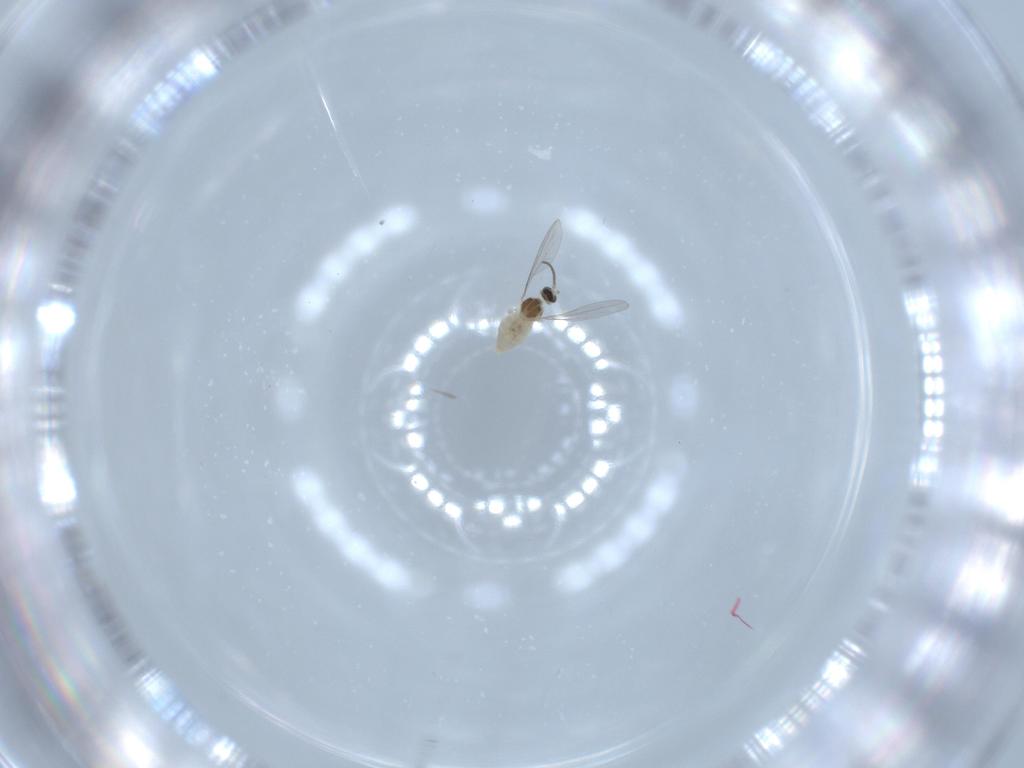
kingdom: Animalia
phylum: Arthropoda
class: Insecta
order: Diptera
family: Cecidomyiidae
